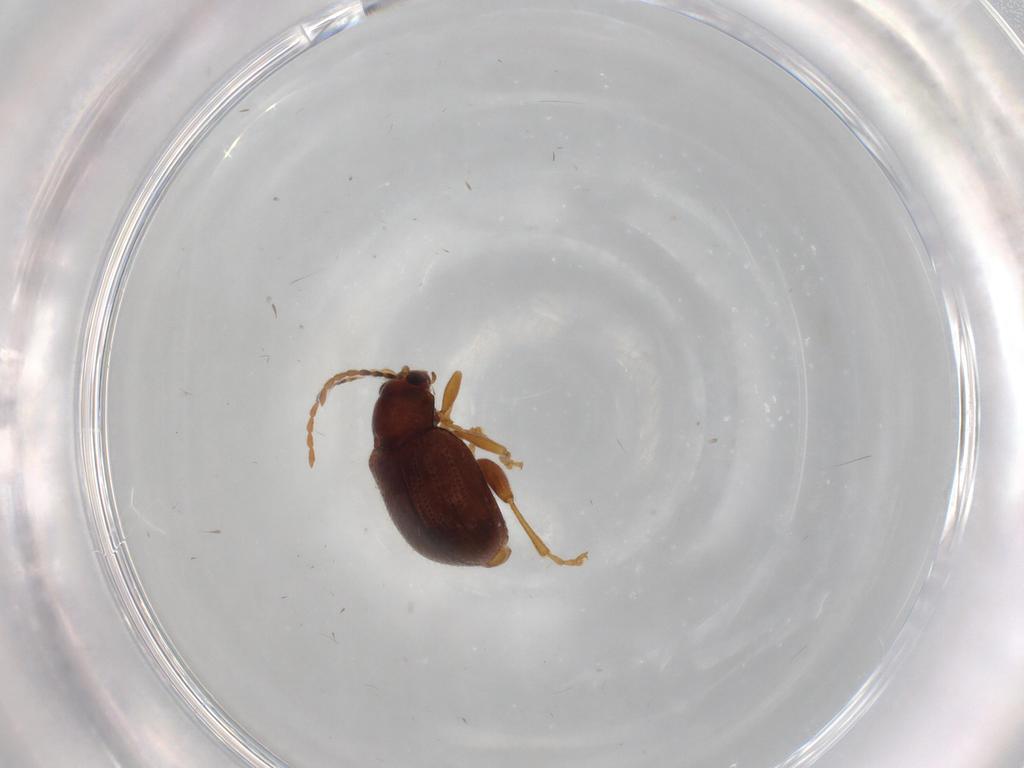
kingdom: Animalia
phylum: Arthropoda
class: Insecta
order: Coleoptera
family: Chrysomelidae
